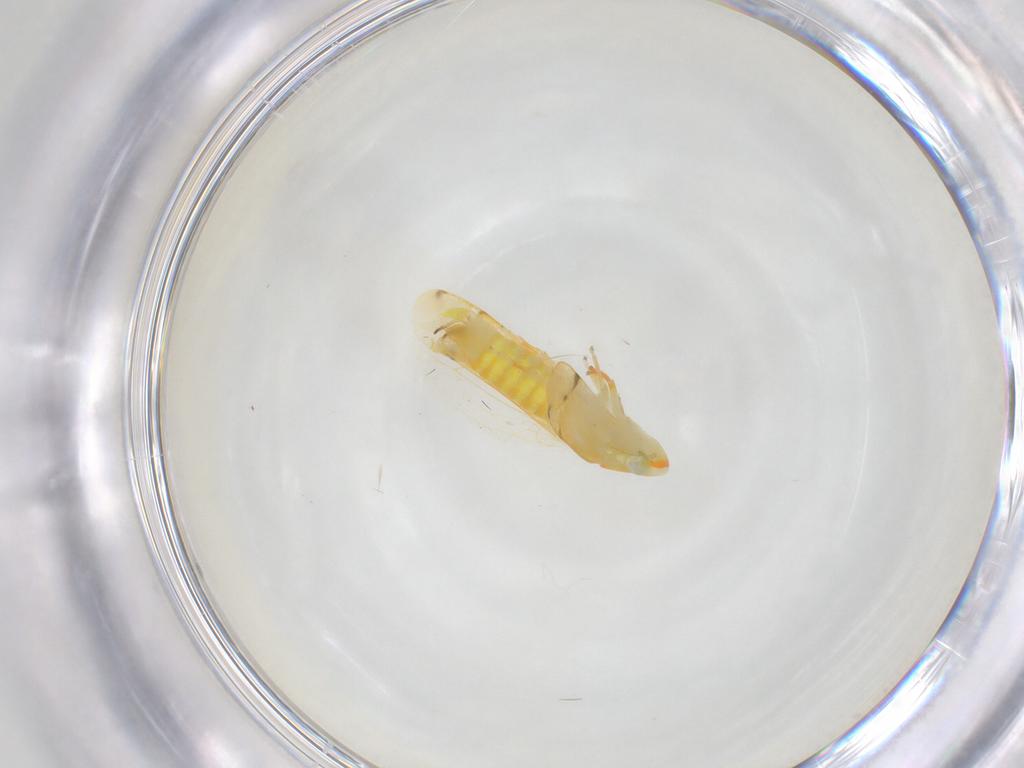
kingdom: Animalia
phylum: Arthropoda
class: Insecta
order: Hemiptera
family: Cicadellidae
